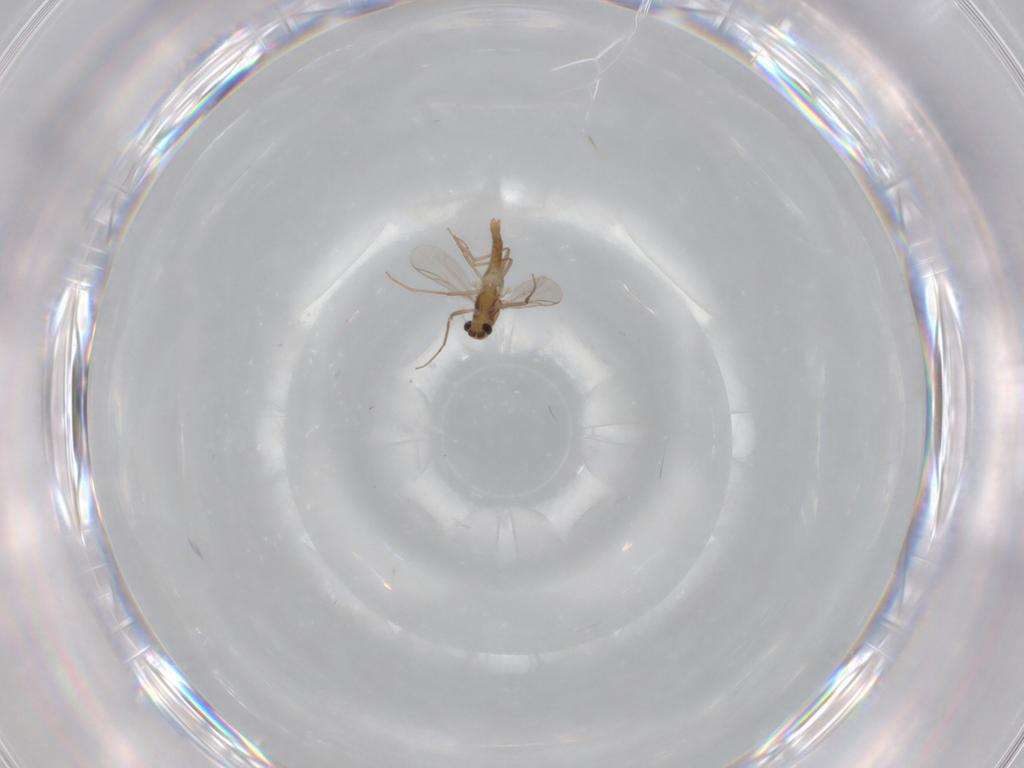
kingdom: Animalia
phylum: Arthropoda
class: Insecta
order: Diptera
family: Chironomidae
